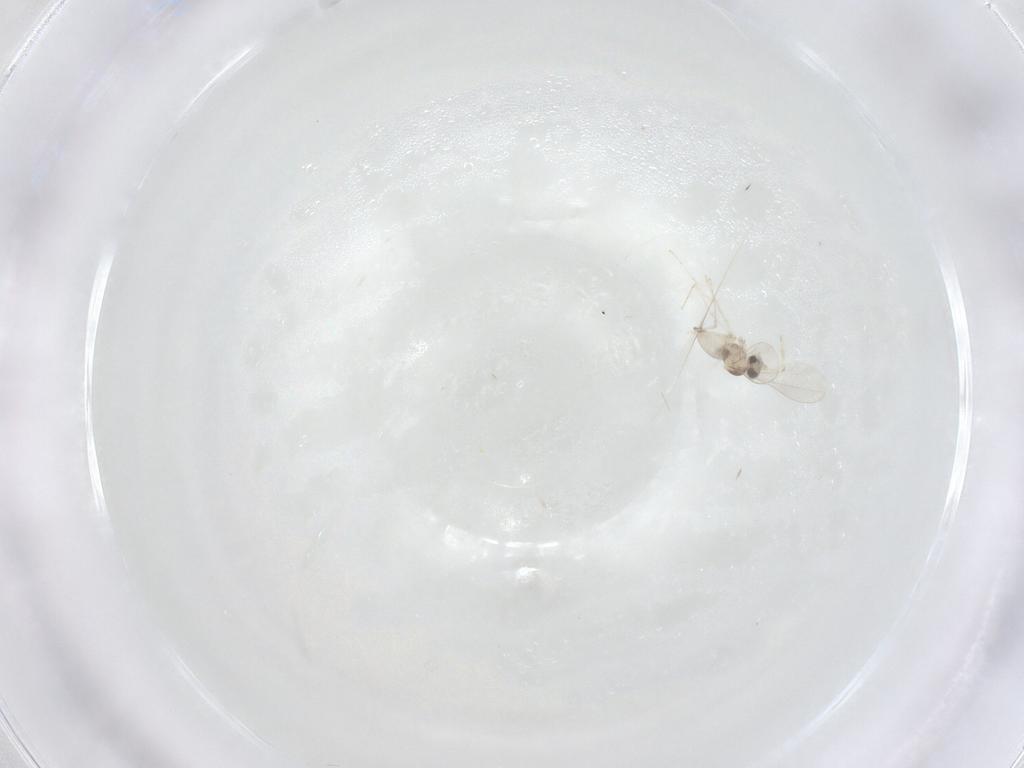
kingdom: Animalia
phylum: Arthropoda
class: Insecta
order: Diptera
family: Cecidomyiidae
